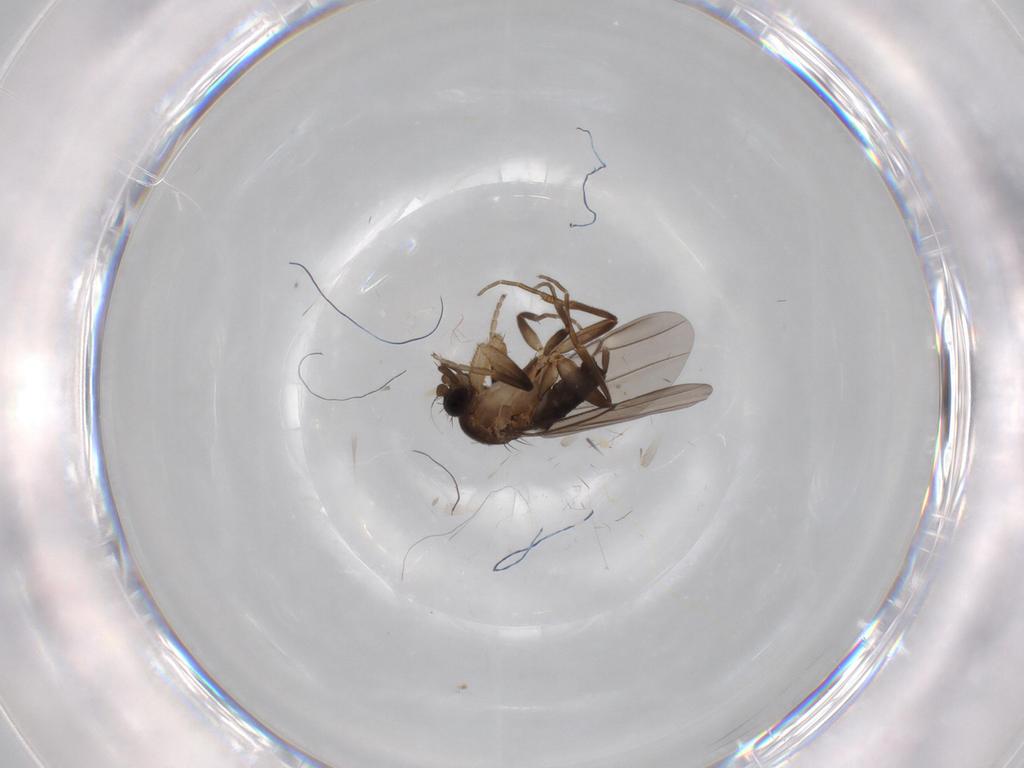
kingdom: Animalia
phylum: Arthropoda
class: Insecta
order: Diptera
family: Phoridae
